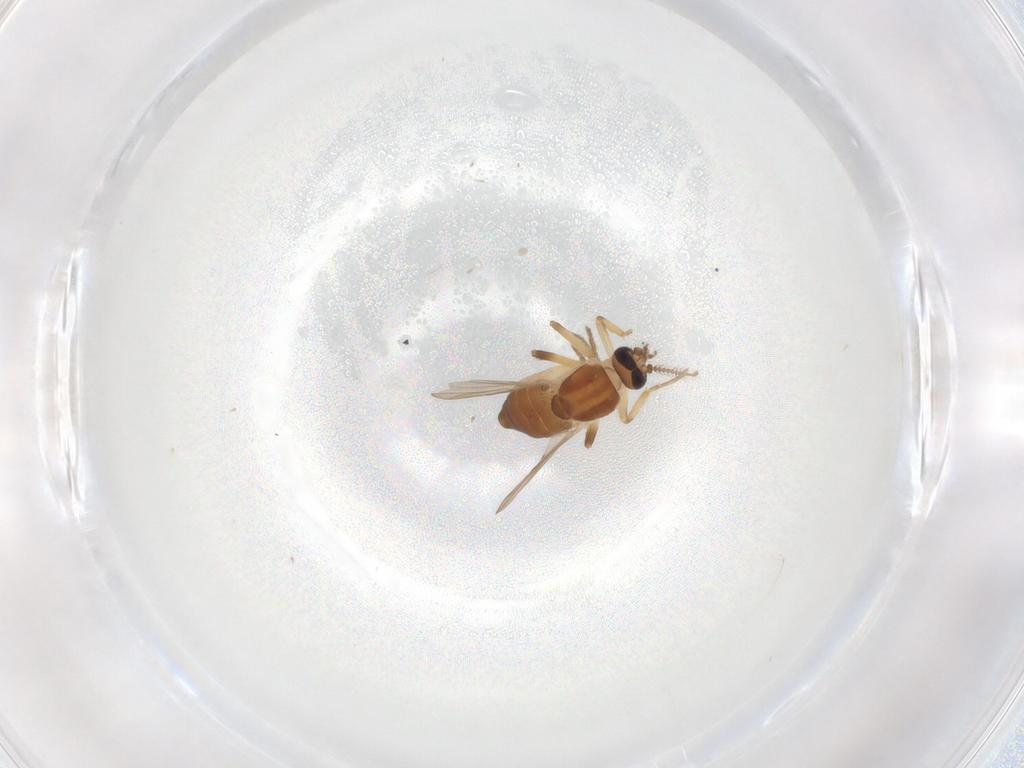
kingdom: Animalia
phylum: Arthropoda
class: Insecta
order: Diptera
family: Ceratopogonidae
